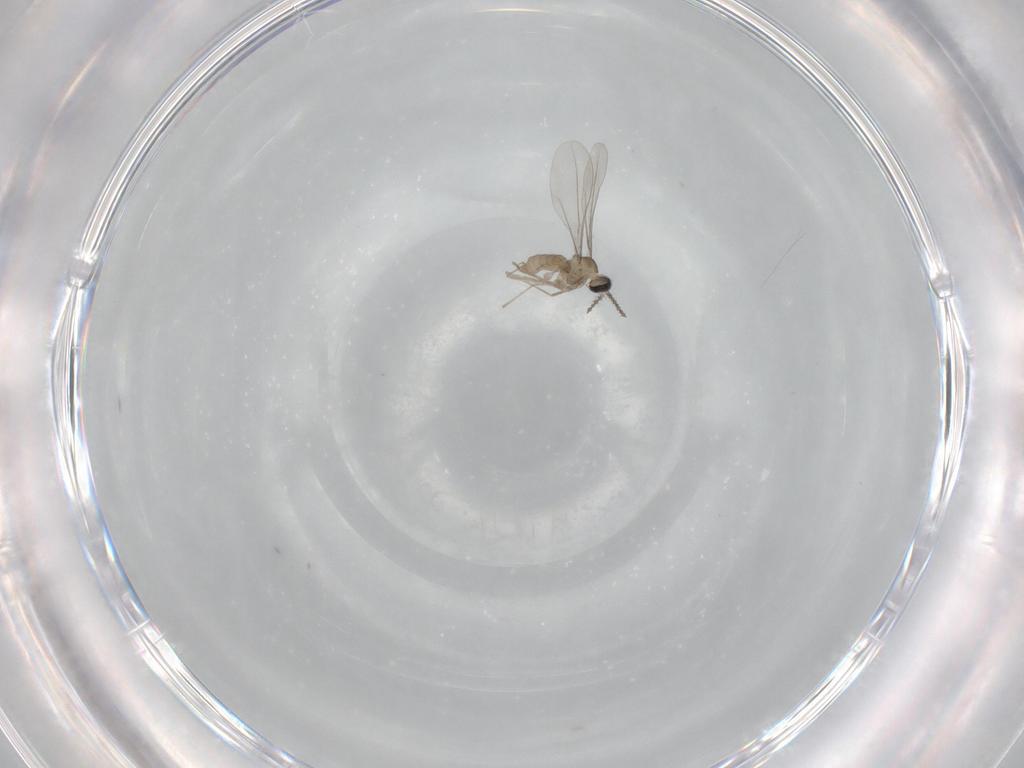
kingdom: Animalia
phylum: Arthropoda
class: Insecta
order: Diptera
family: Cecidomyiidae
